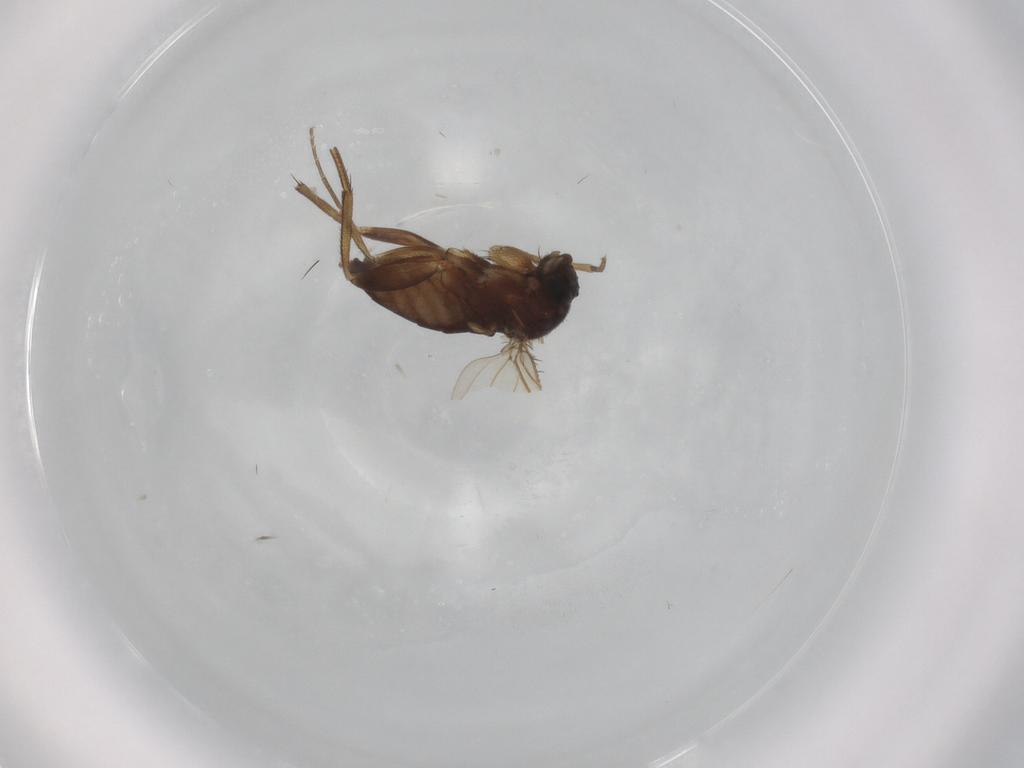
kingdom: Animalia
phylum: Arthropoda
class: Insecta
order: Diptera
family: Phoridae
